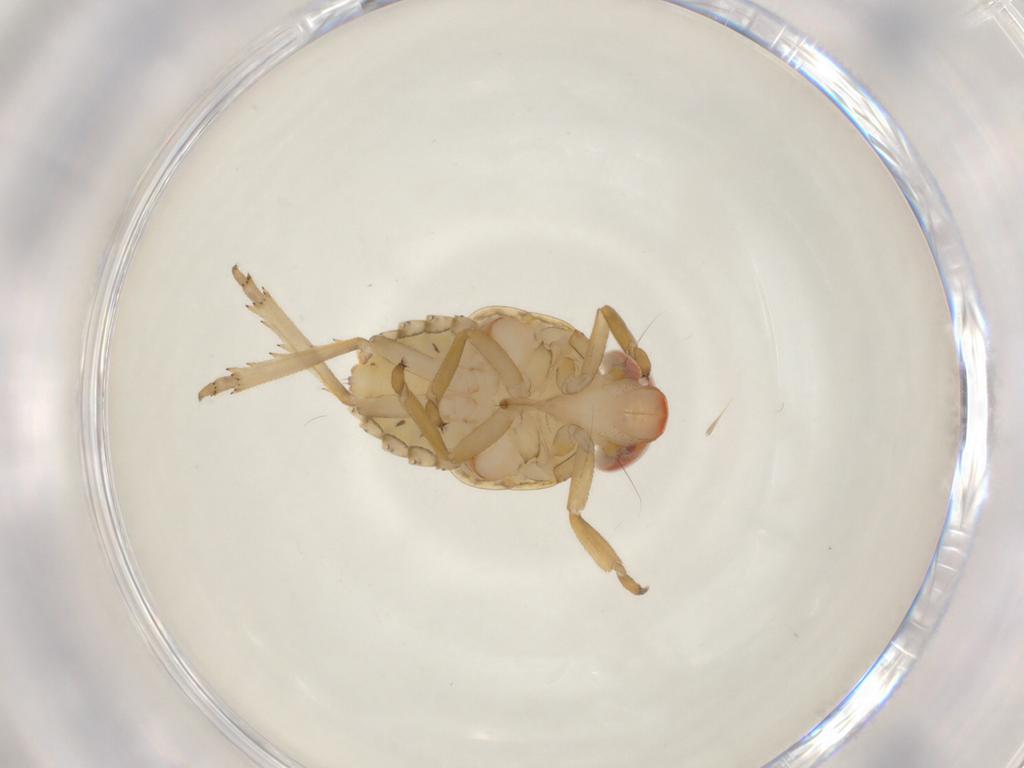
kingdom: Animalia
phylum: Arthropoda
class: Insecta
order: Hemiptera
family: Issidae
